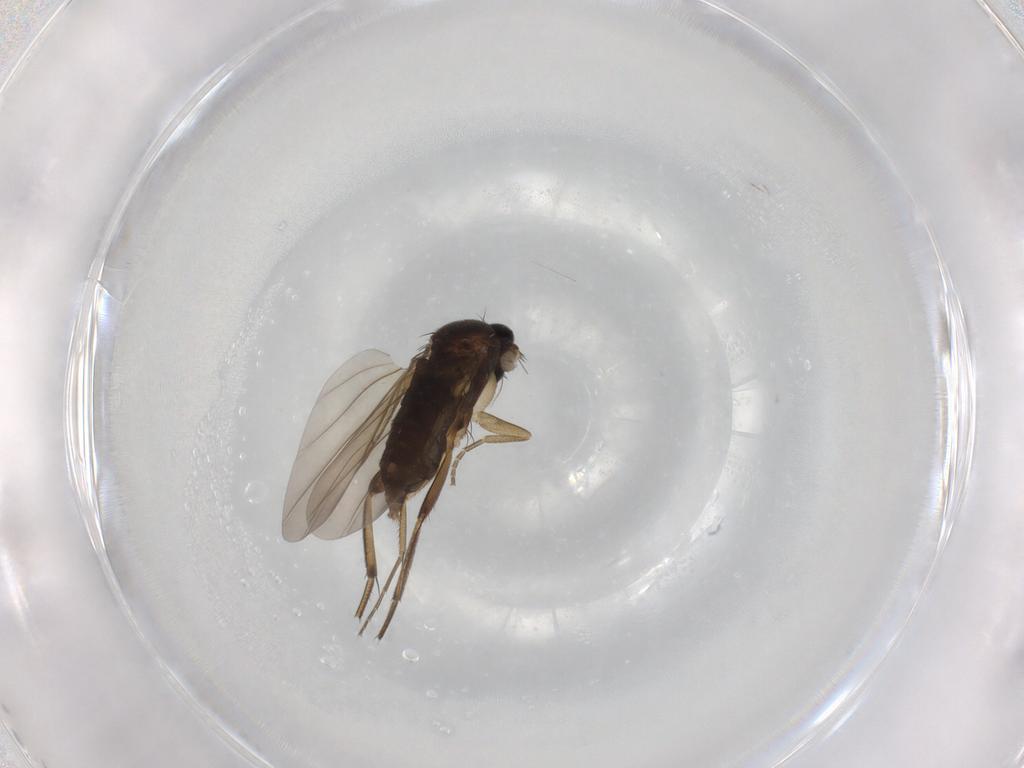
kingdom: Animalia
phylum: Arthropoda
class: Insecta
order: Diptera
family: Phoridae
